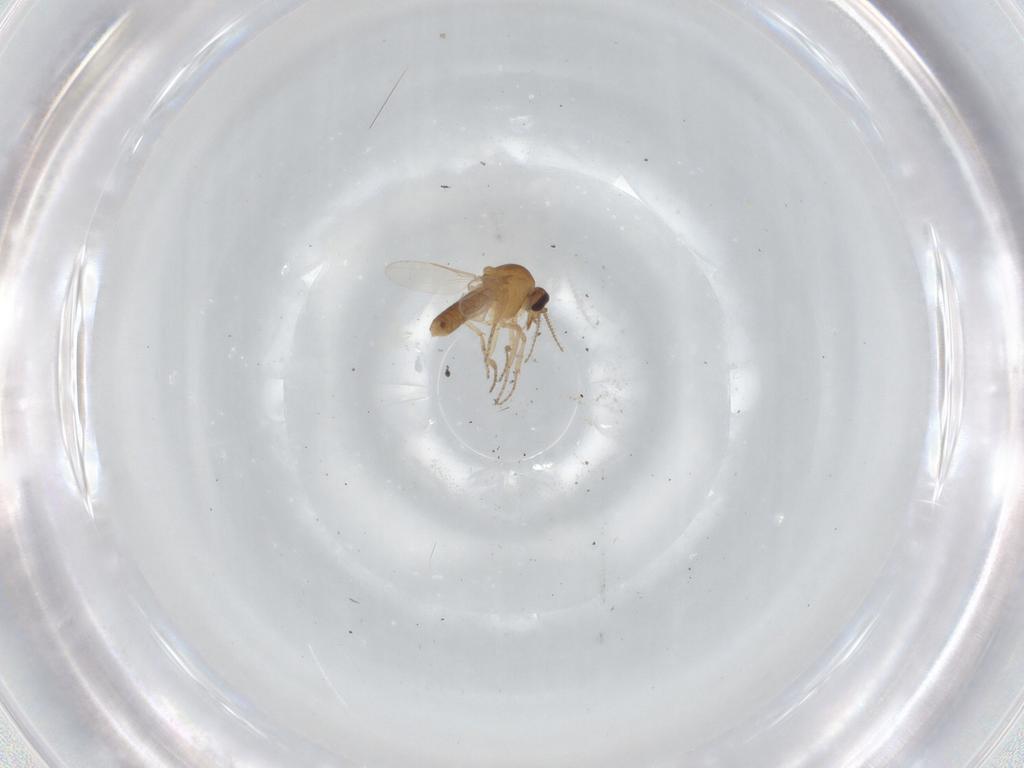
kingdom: Animalia
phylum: Arthropoda
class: Insecta
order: Diptera
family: Ceratopogonidae
